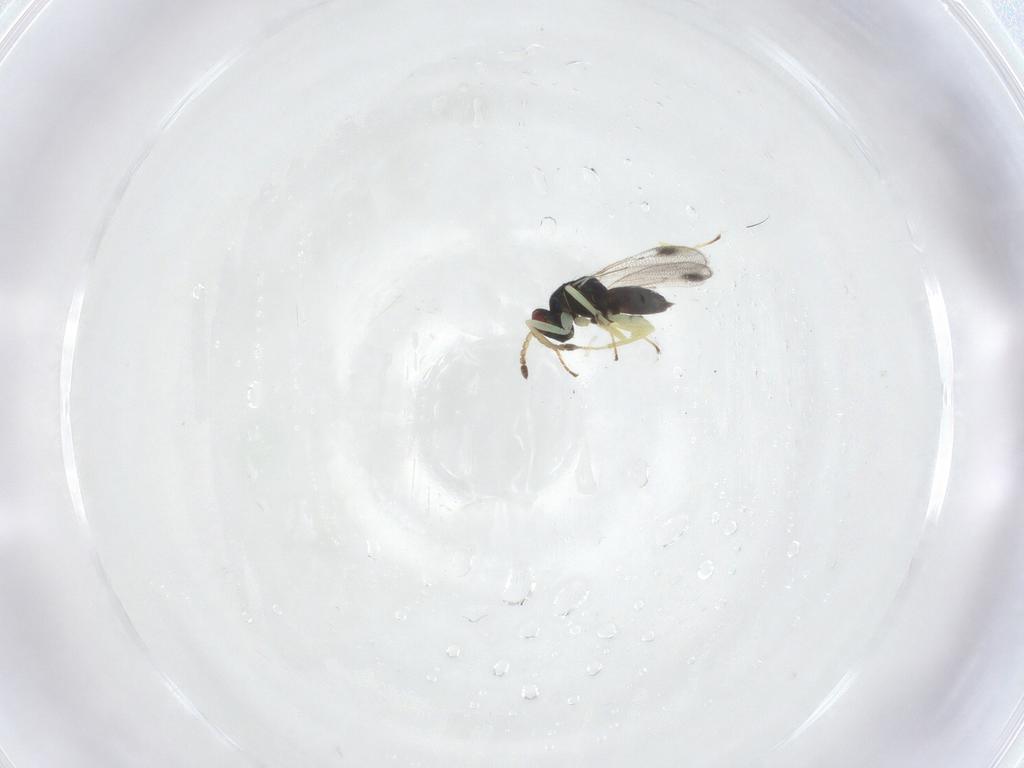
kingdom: Animalia
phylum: Arthropoda
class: Insecta
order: Hymenoptera
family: Eulophidae
